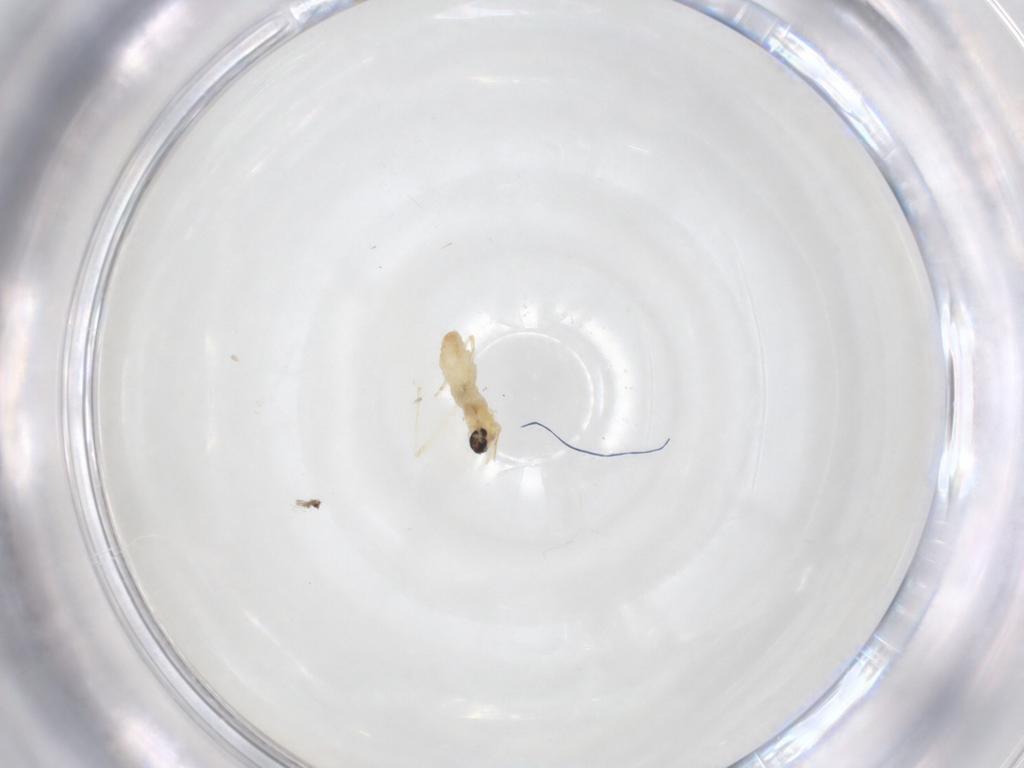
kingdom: Animalia
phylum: Arthropoda
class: Insecta
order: Diptera
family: Cecidomyiidae
